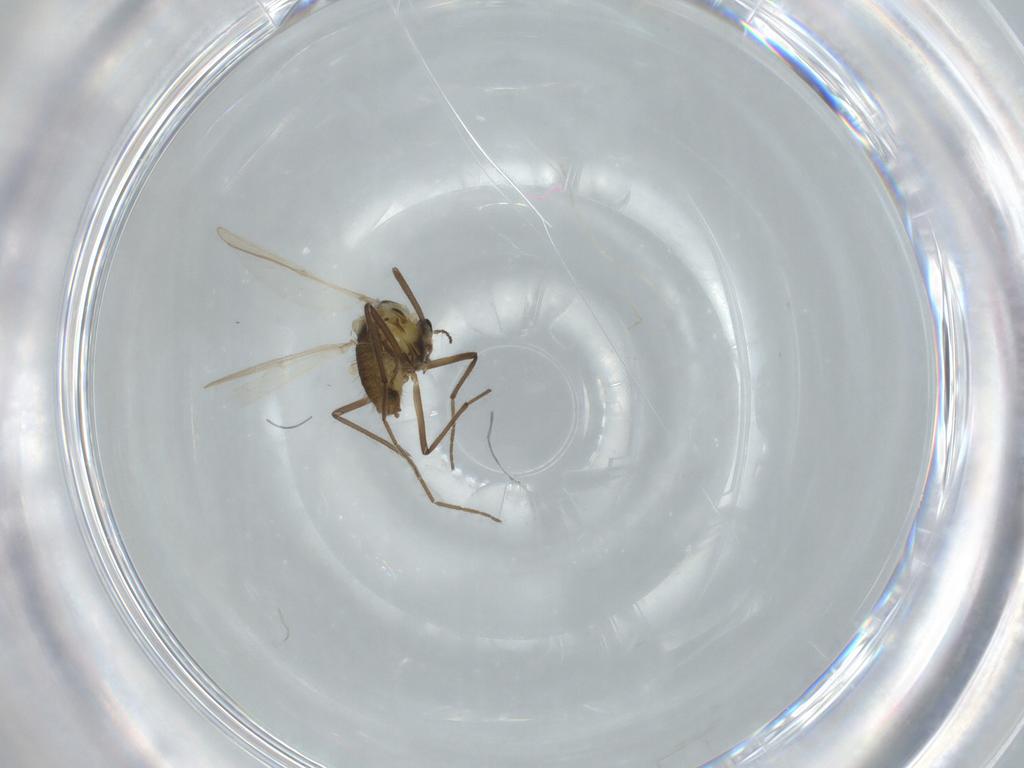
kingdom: Animalia
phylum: Arthropoda
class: Insecta
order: Diptera
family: Chironomidae
